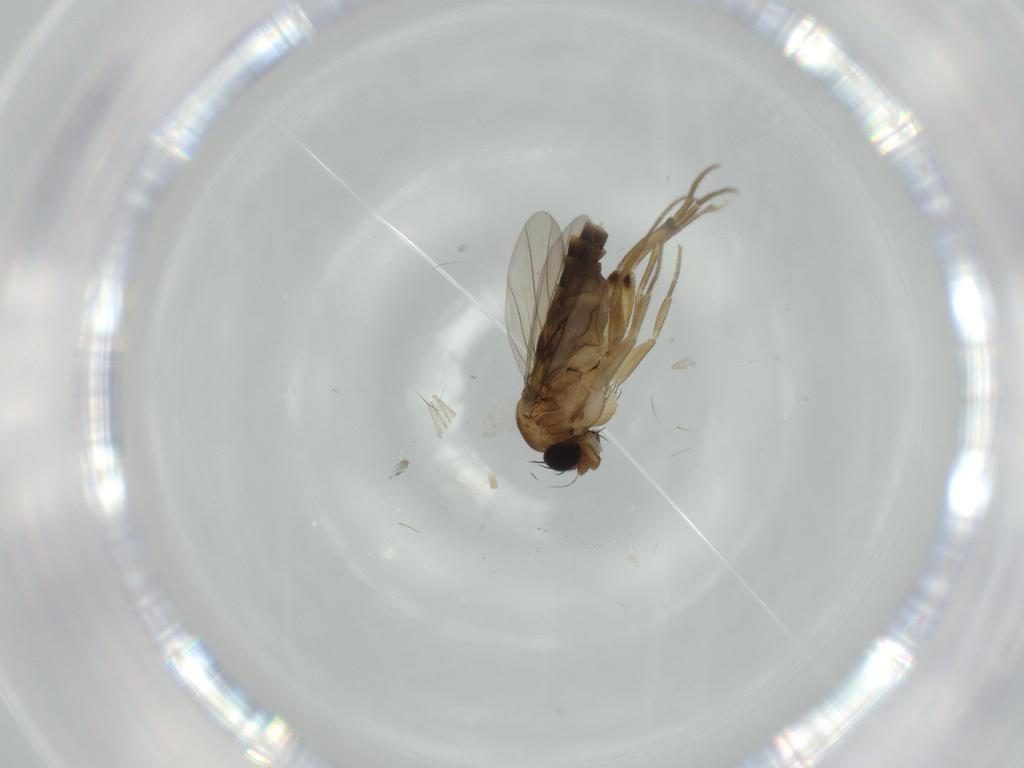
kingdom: Animalia
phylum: Arthropoda
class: Insecta
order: Diptera
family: Phoridae
